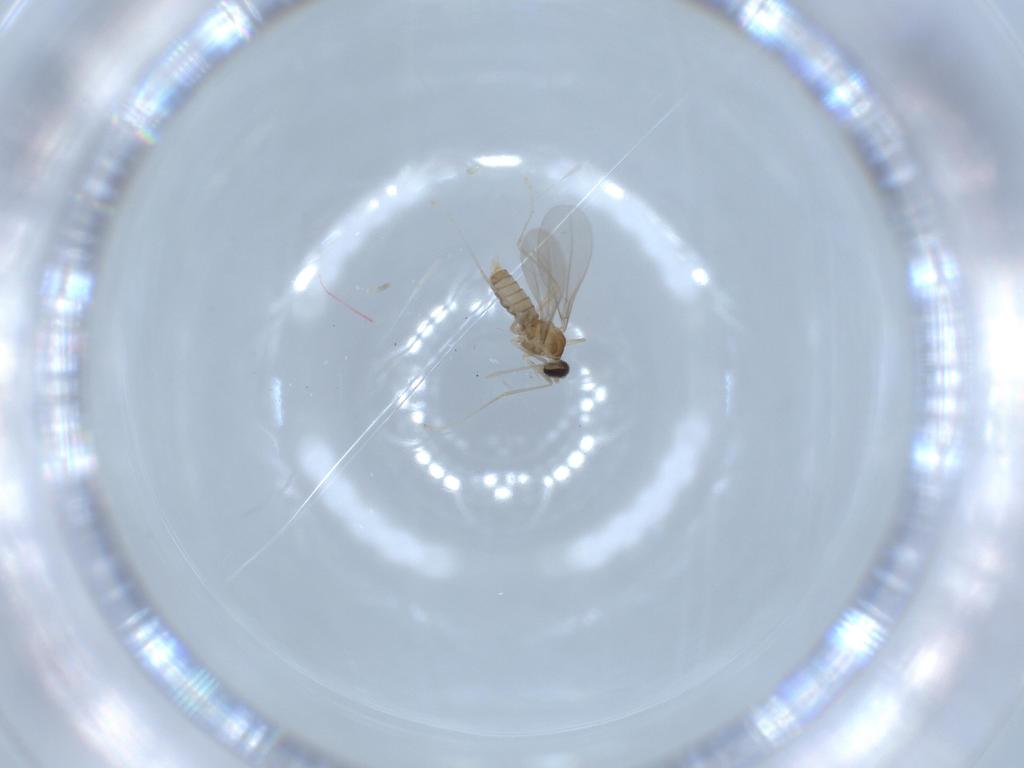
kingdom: Animalia
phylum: Arthropoda
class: Insecta
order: Diptera
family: Cecidomyiidae
